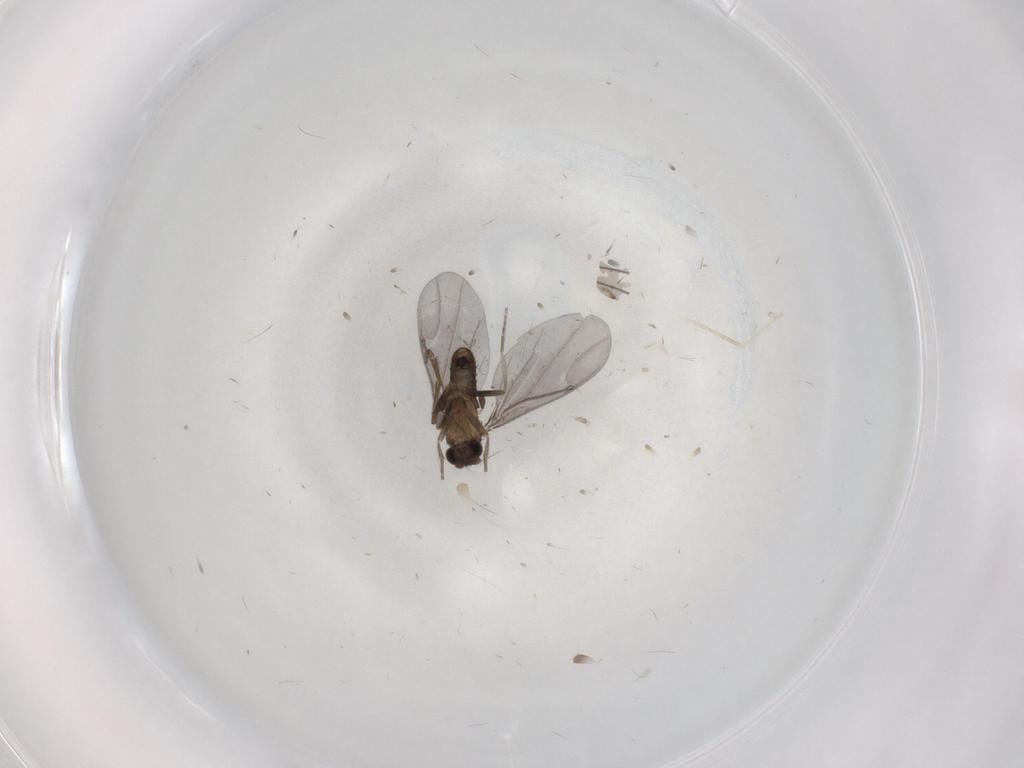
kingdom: Animalia
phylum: Arthropoda
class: Insecta
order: Diptera
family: Phoridae
